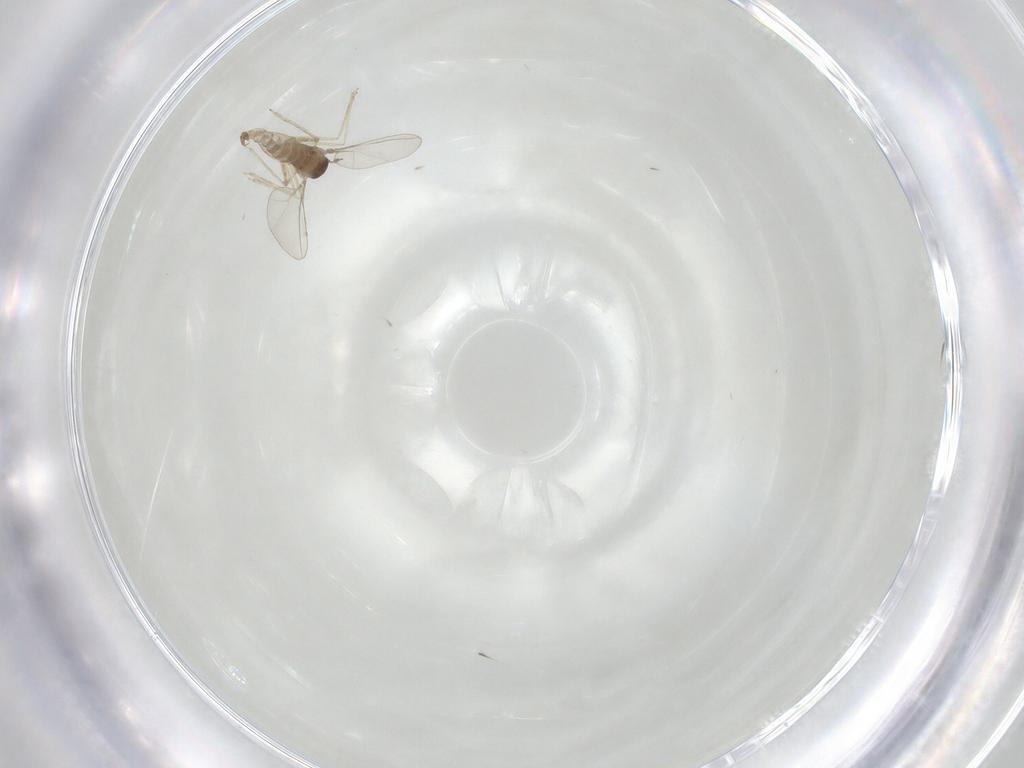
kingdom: Animalia
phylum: Arthropoda
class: Insecta
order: Diptera
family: Cecidomyiidae
